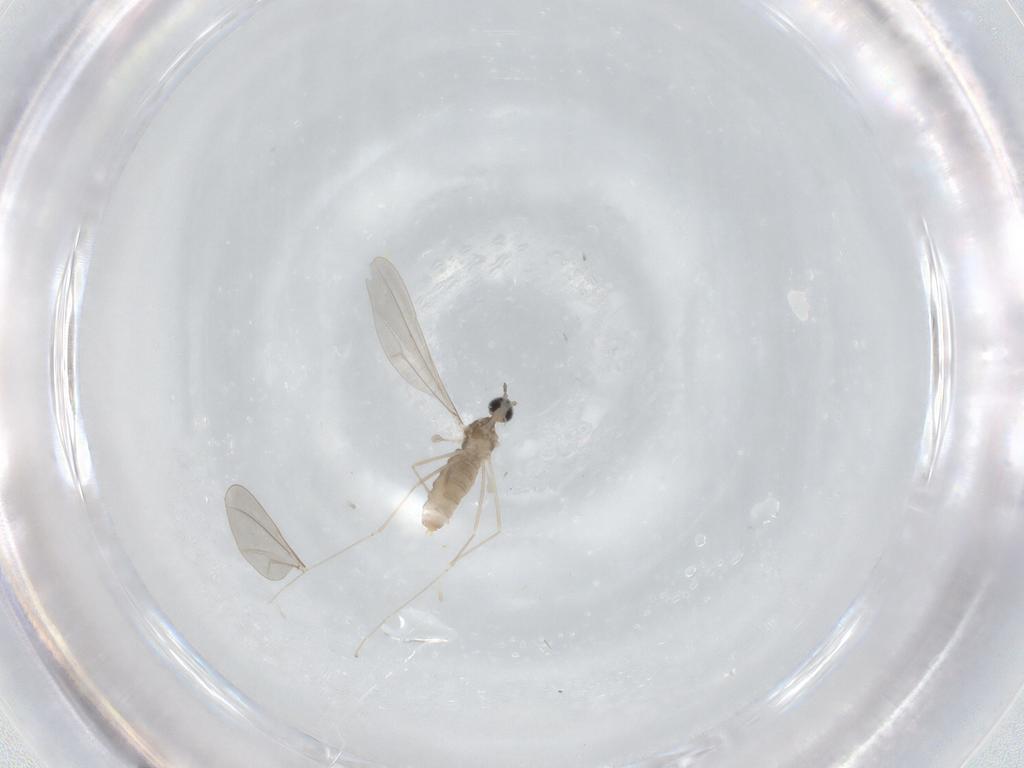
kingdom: Animalia
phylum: Arthropoda
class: Insecta
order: Diptera
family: Cecidomyiidae
